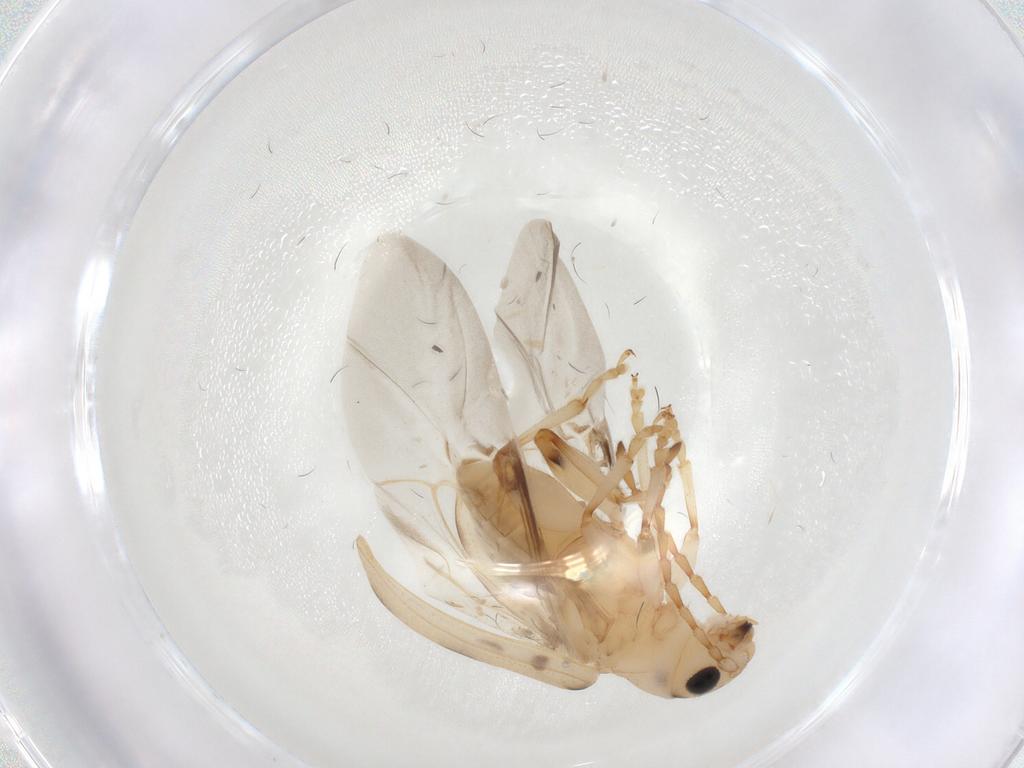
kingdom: Animalia
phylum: Arthropoda
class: Insecta
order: Coleoptera
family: Chrysomelidae
